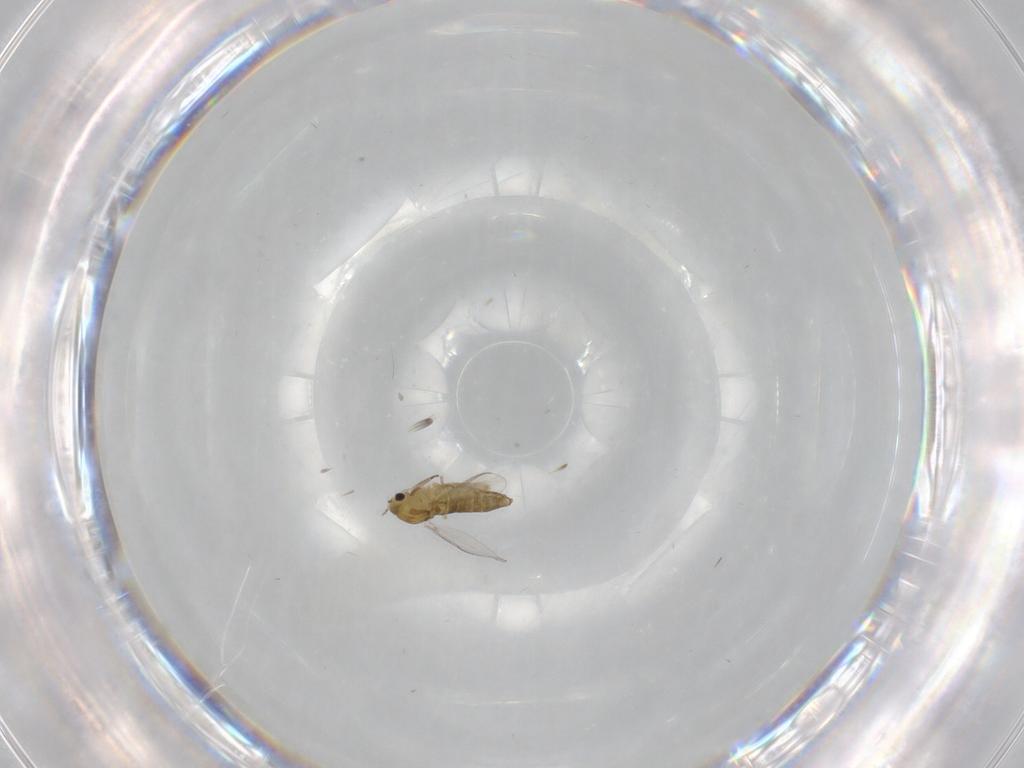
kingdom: Animalia
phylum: Arthropoda
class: Insecta
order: Diptera
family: Chironomidae
